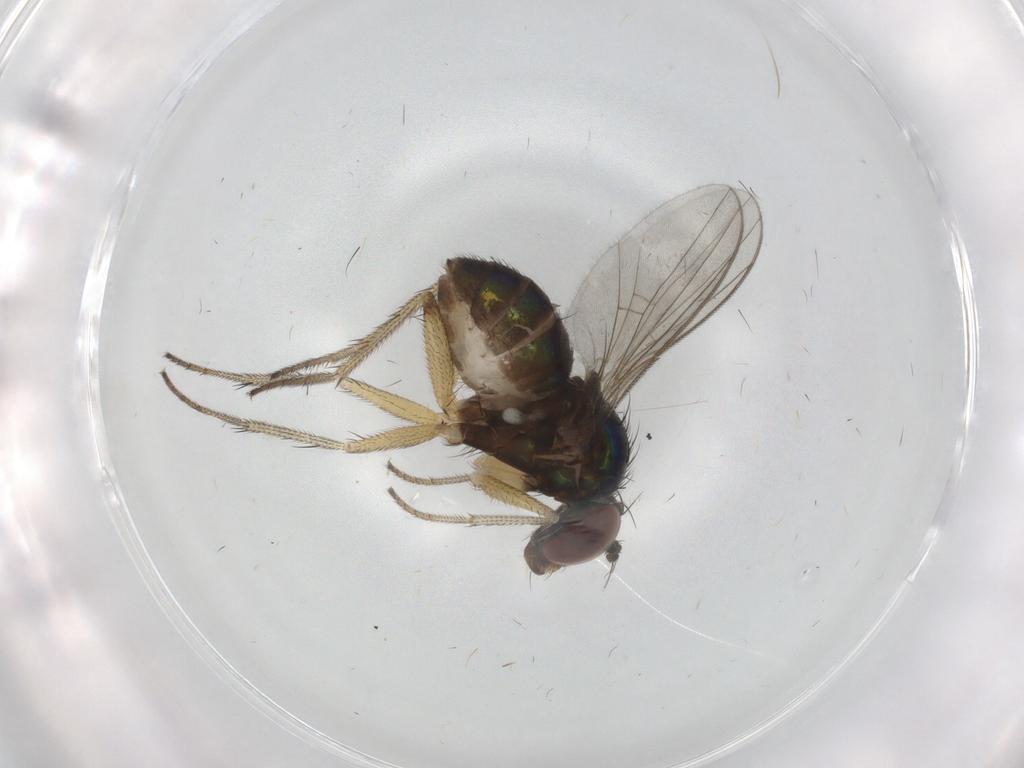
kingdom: Animalia
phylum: Arthropoda
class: Insecta
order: Diptera
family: Dolichopodidae
